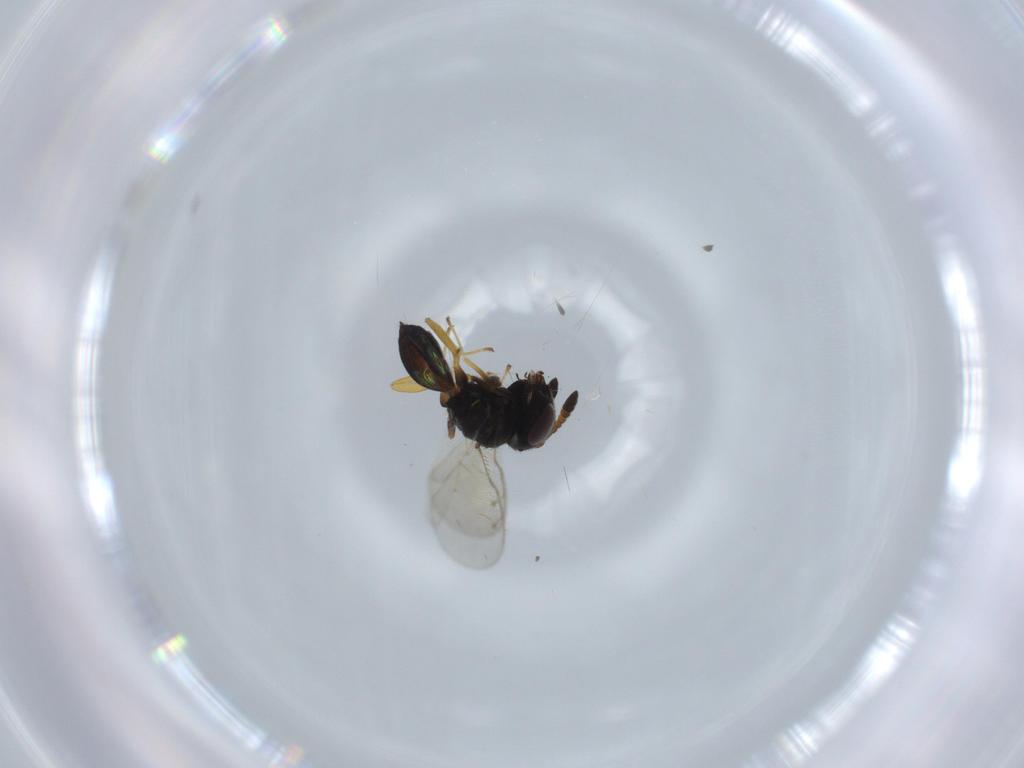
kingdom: Animalia
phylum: Arthropoda
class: Insecta
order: Hymenoptera
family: Pteromalidae
